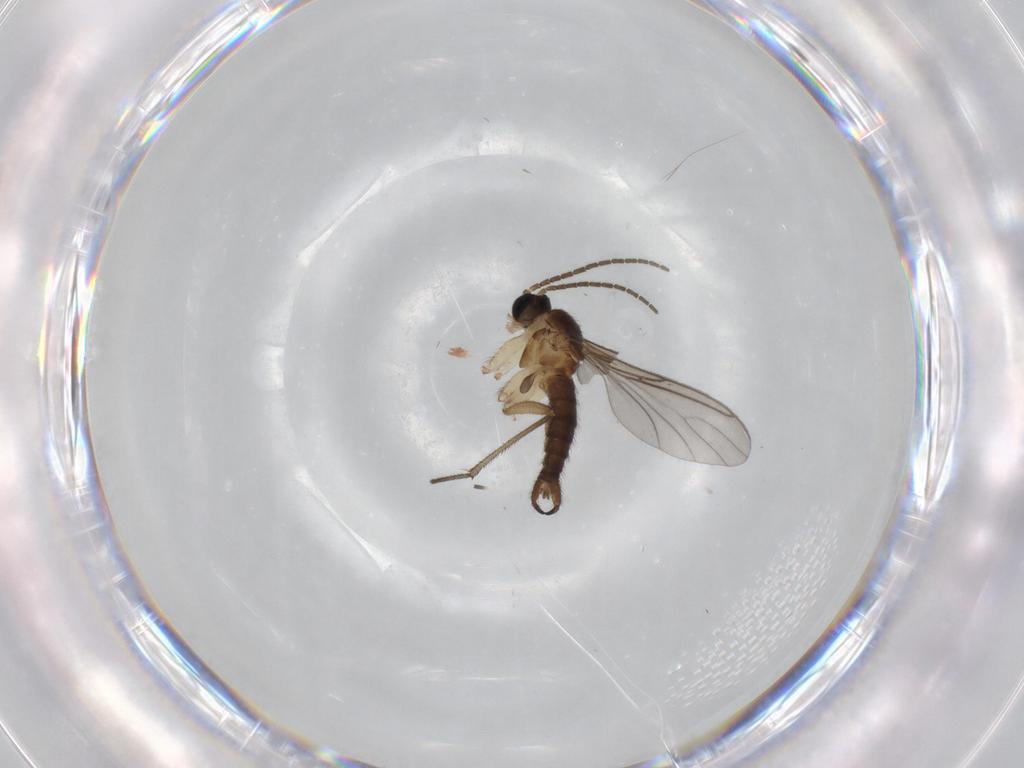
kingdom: Animalia
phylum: Arthropoda
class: Insecta
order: Diptera
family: Sciaridae
